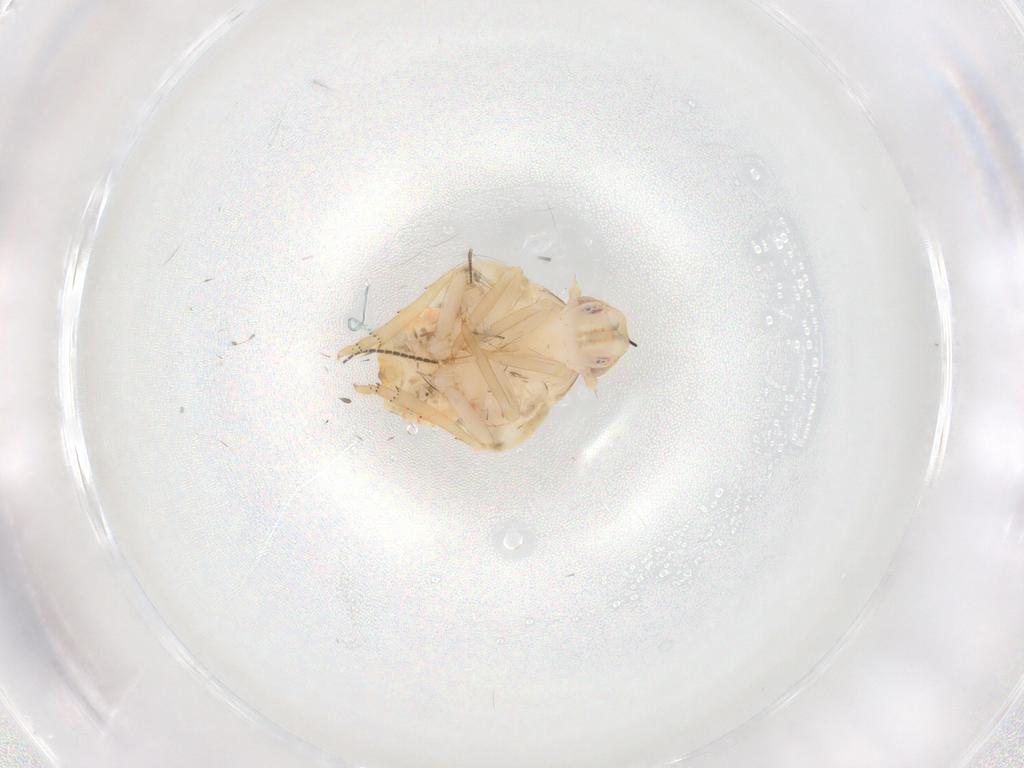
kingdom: Animalia
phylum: Arthropoda
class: Insecta
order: Hemiptera
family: Flatidae
